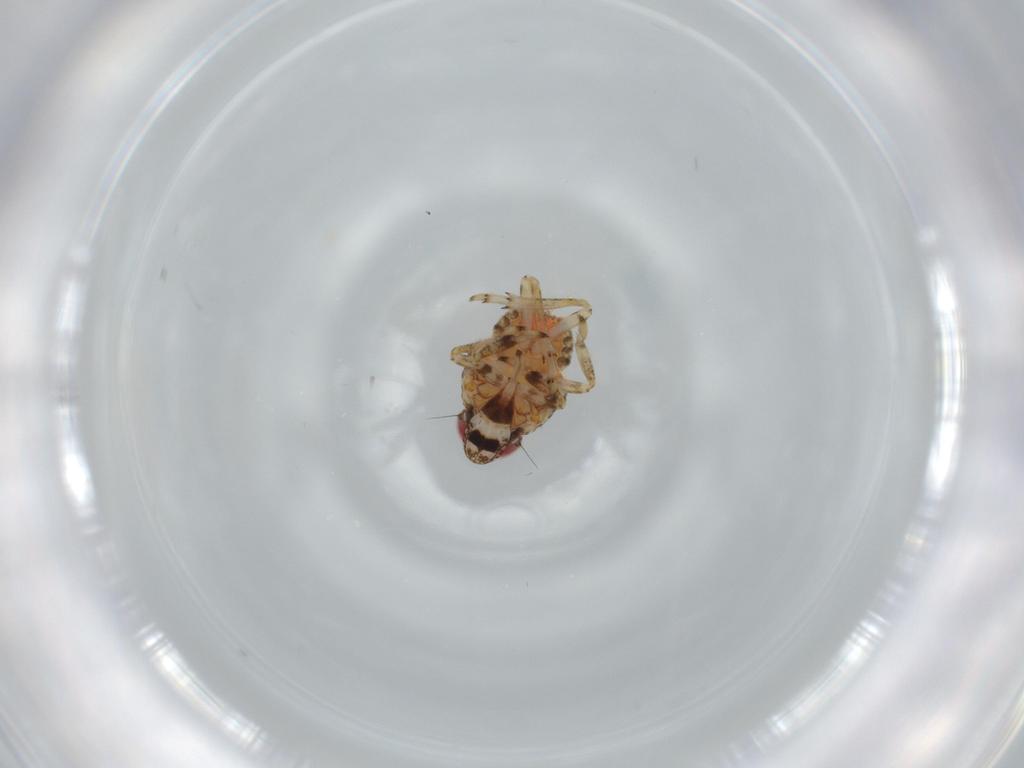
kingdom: Animalia
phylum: Arthropoda
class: Insecta
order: Hemiptera
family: Issidae
